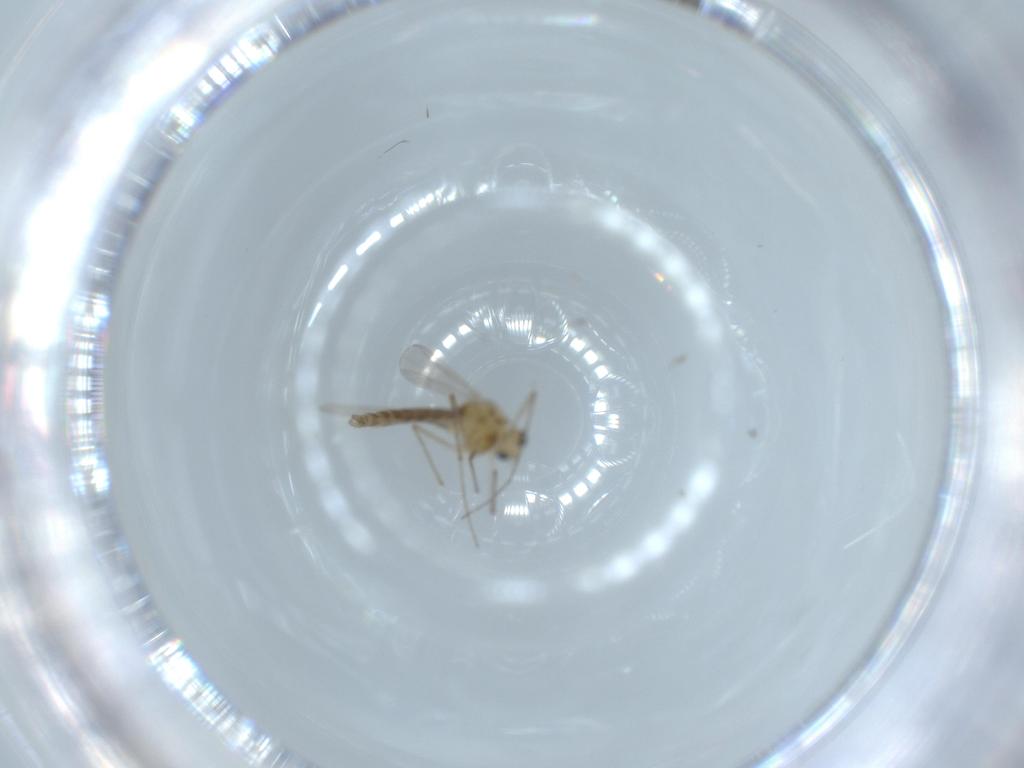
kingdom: Animalia
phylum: Arthropoda
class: Insecta
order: Diptera
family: Chironomidae
